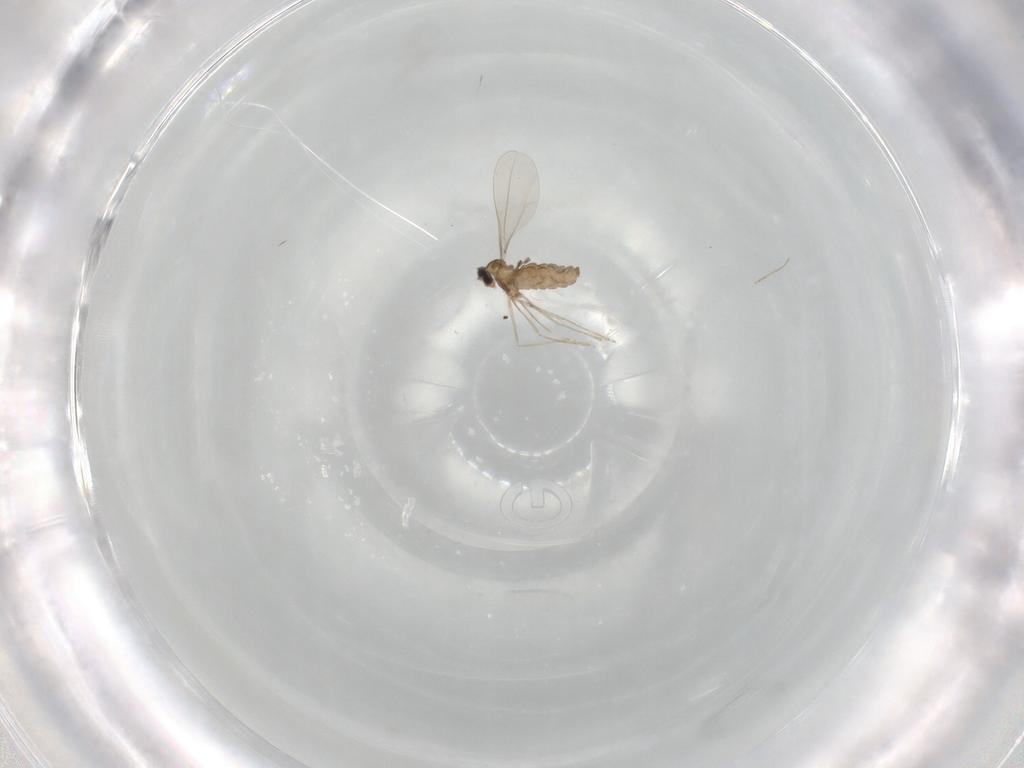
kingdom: Animalia
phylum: Arthropoda
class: Insecta
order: Diptera
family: Cecidomyiidae
